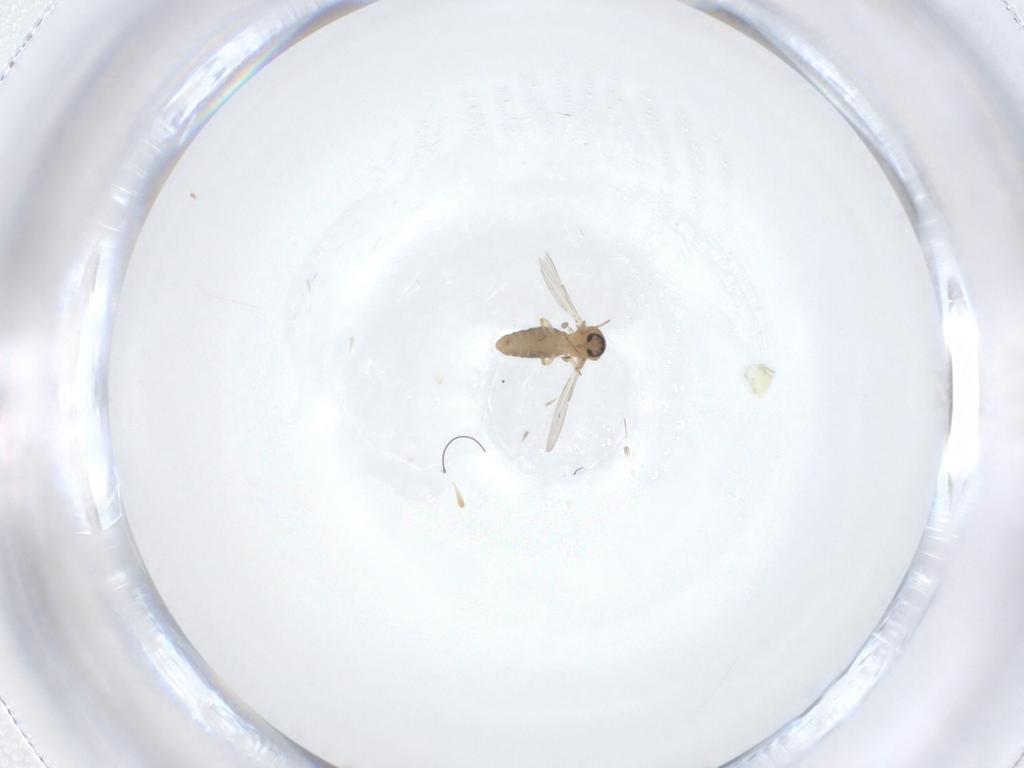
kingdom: Animalia
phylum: Arthropoda
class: Insecta
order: Diptera
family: Ceratopogonidae
